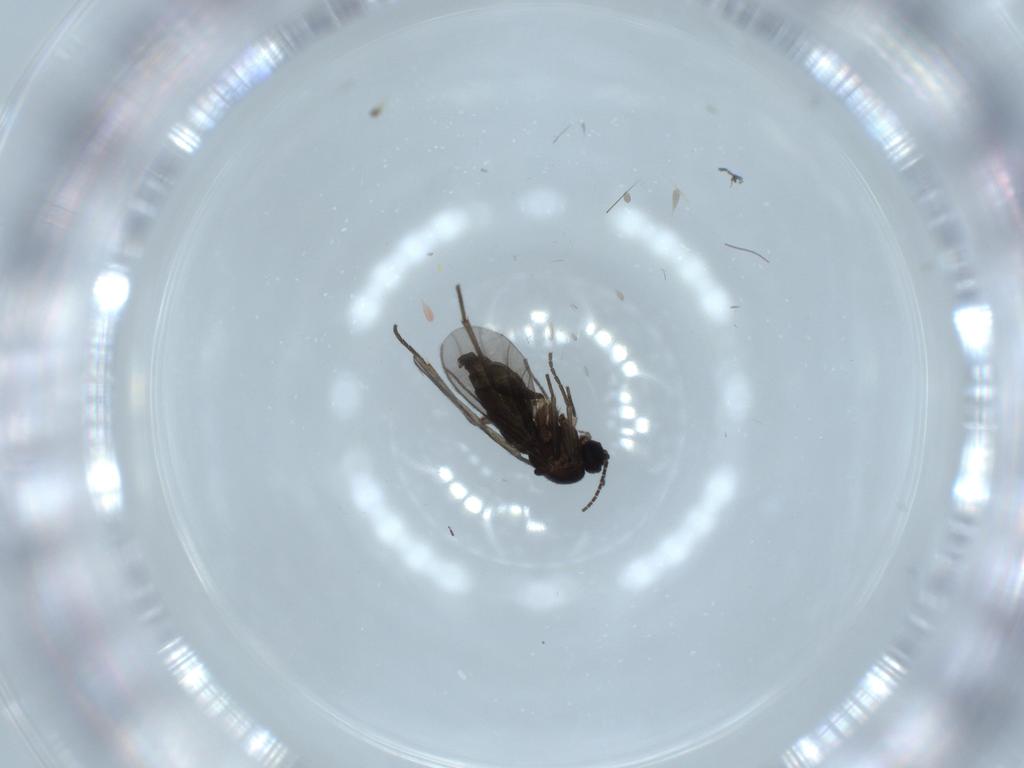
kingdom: Animalia
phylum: Arthropoda
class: Insecta
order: Diptera
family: Sciaridae
